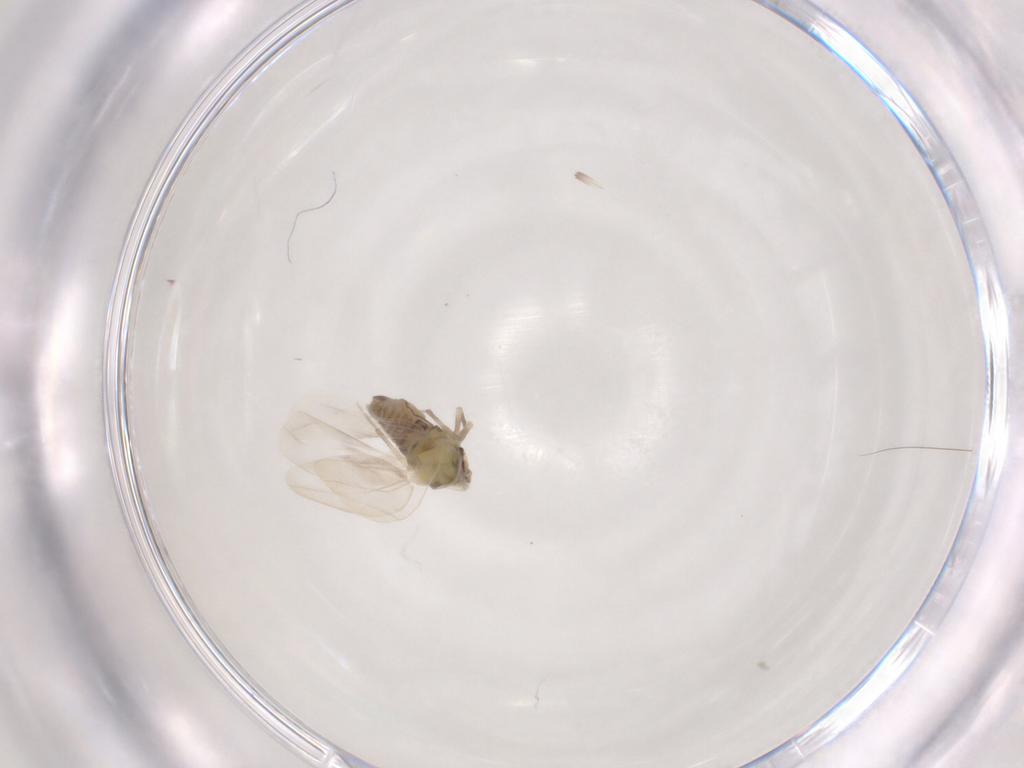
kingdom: Animalia
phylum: Arthropoda
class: Insecta
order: Hemiptera
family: Aleyrodidae
